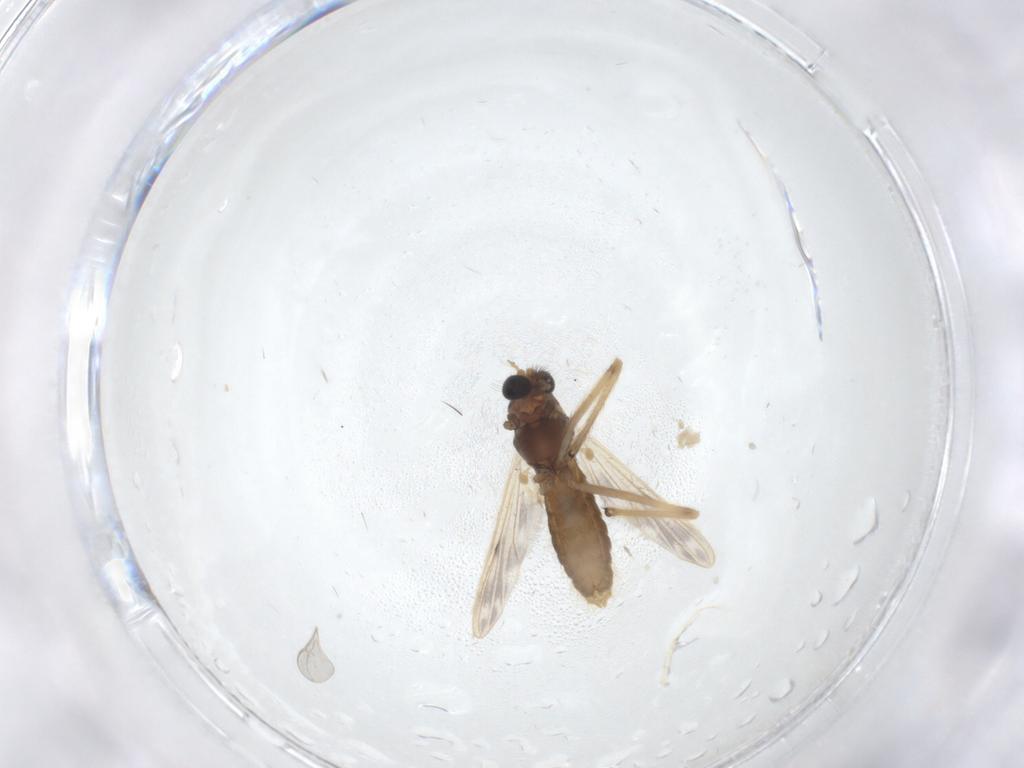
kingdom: Animalia
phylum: Arthropoda
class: Insecta
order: Diptera
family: Chironomidae
